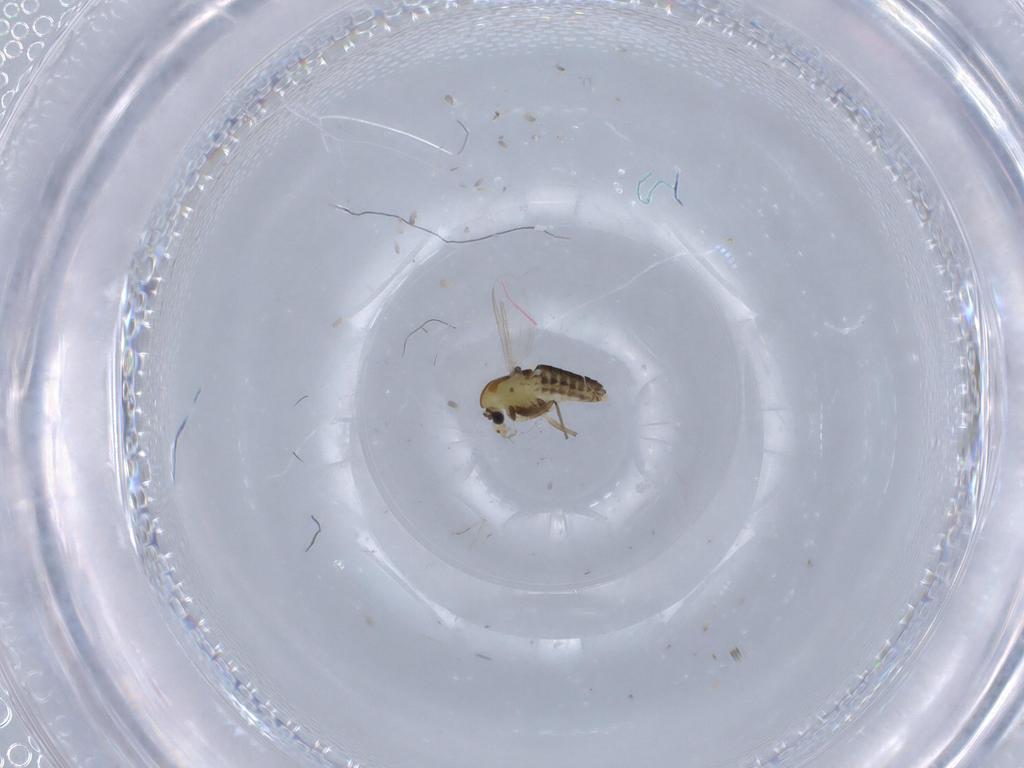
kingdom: Animalia
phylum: Arthropoda
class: Insecta
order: Diptera
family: Chironomidae
